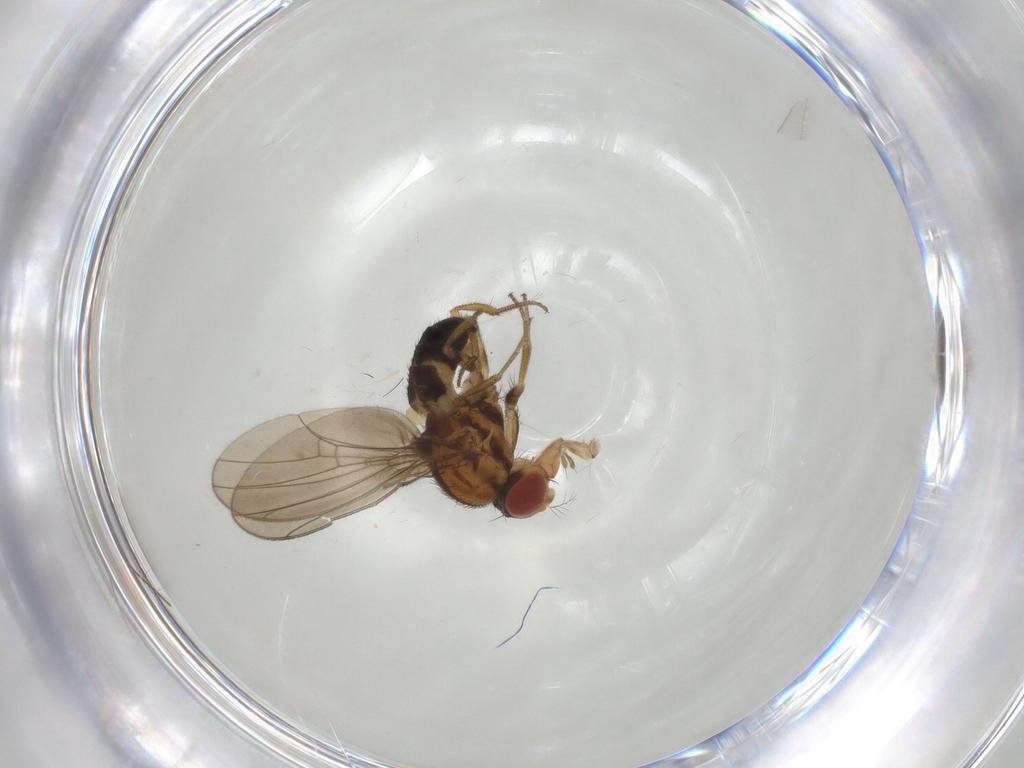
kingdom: Animalia
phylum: Arthropoda
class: Insecta
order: Diptera
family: Drosophilidae
